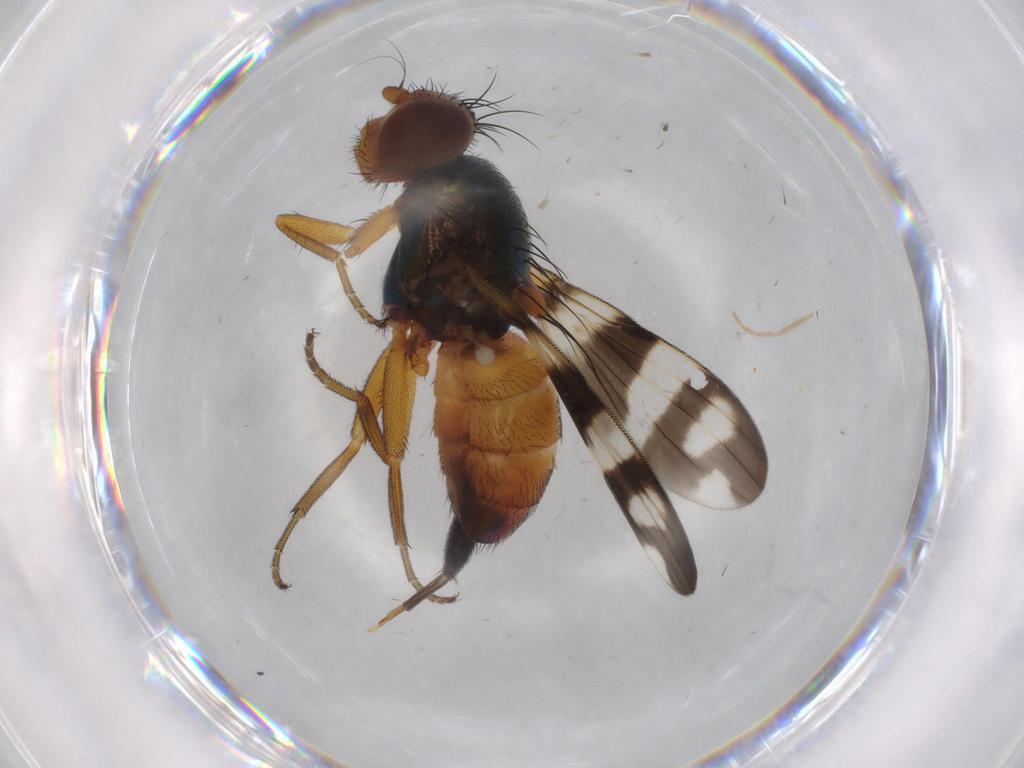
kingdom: Animalia
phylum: Arthropoda
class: Insecta
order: Diptera
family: Ulidiidae
